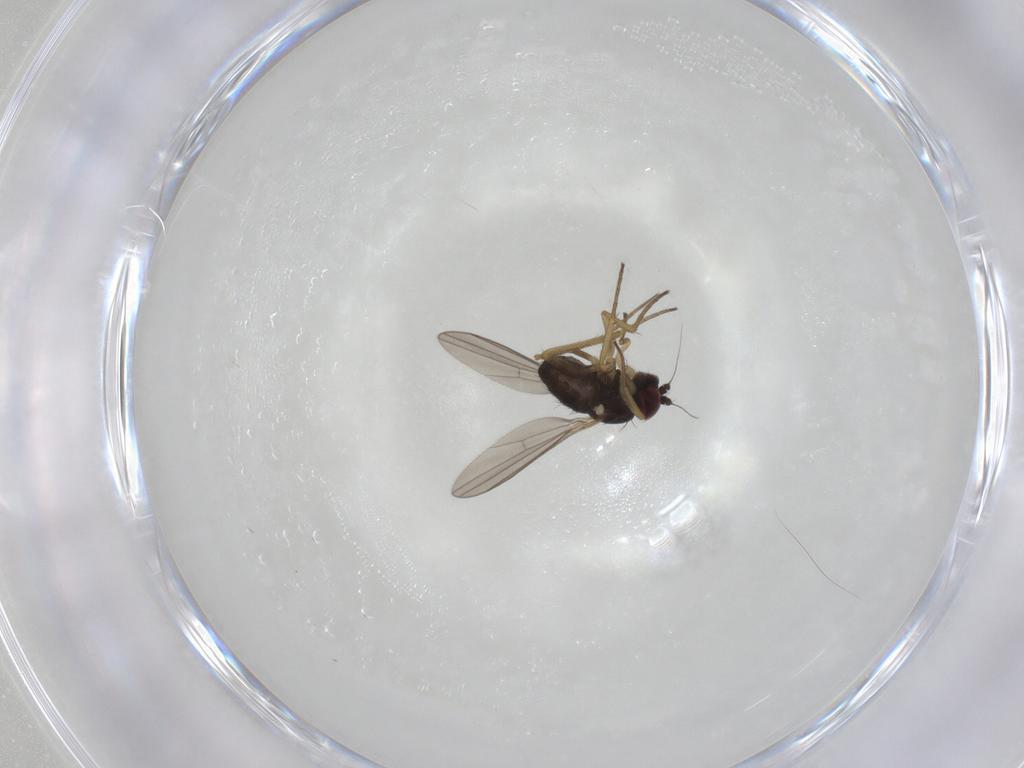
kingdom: Animalia
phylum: Arthropoda
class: Insecta
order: Diptera
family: Dolichopodidae
